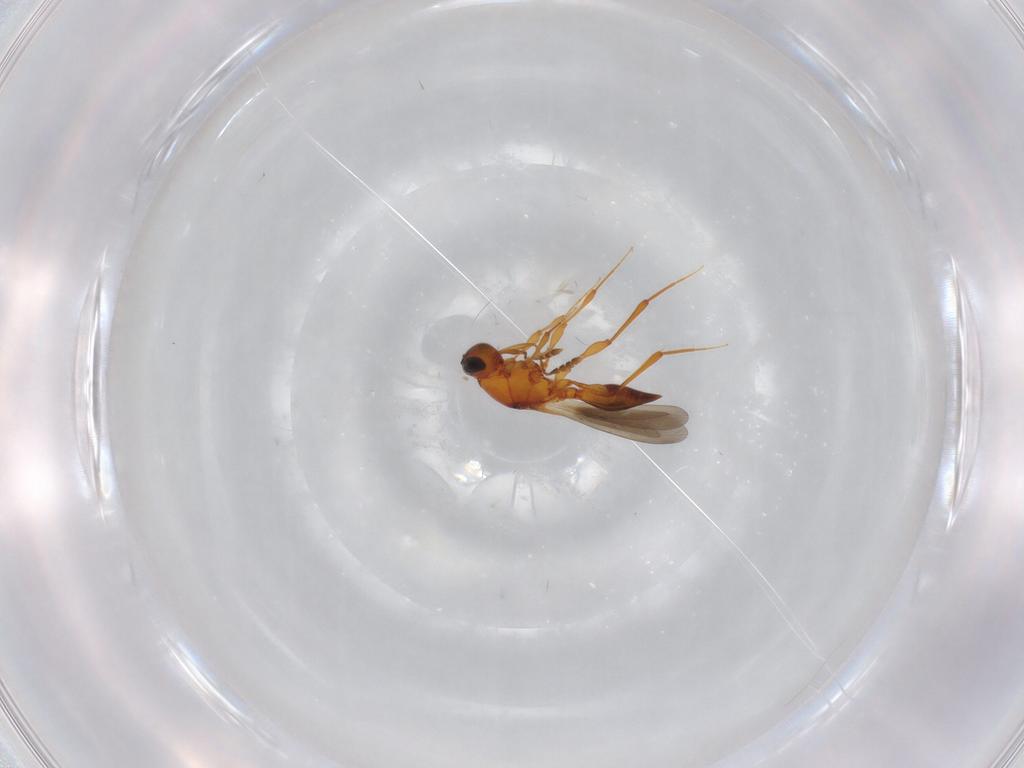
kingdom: Animalia
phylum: Arthropoda
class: Insecta
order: Hymenoptera
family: Platygastridae
